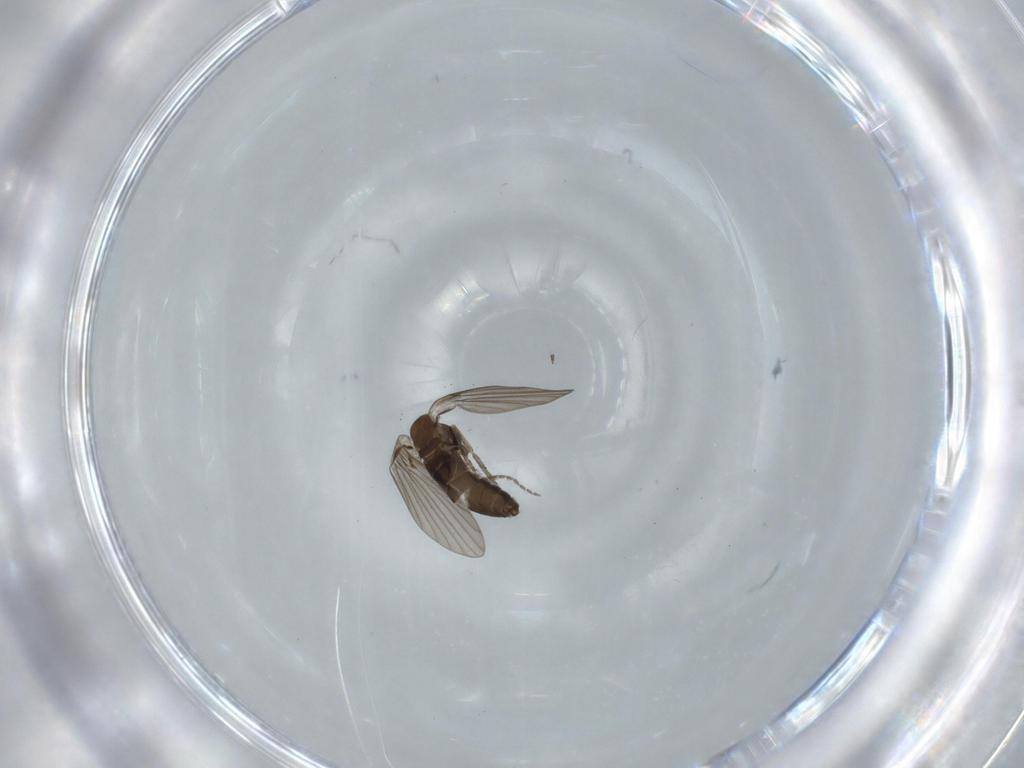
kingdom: Animalia
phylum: Arthropoda
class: Insecta
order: Diptera
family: Psychodidae
